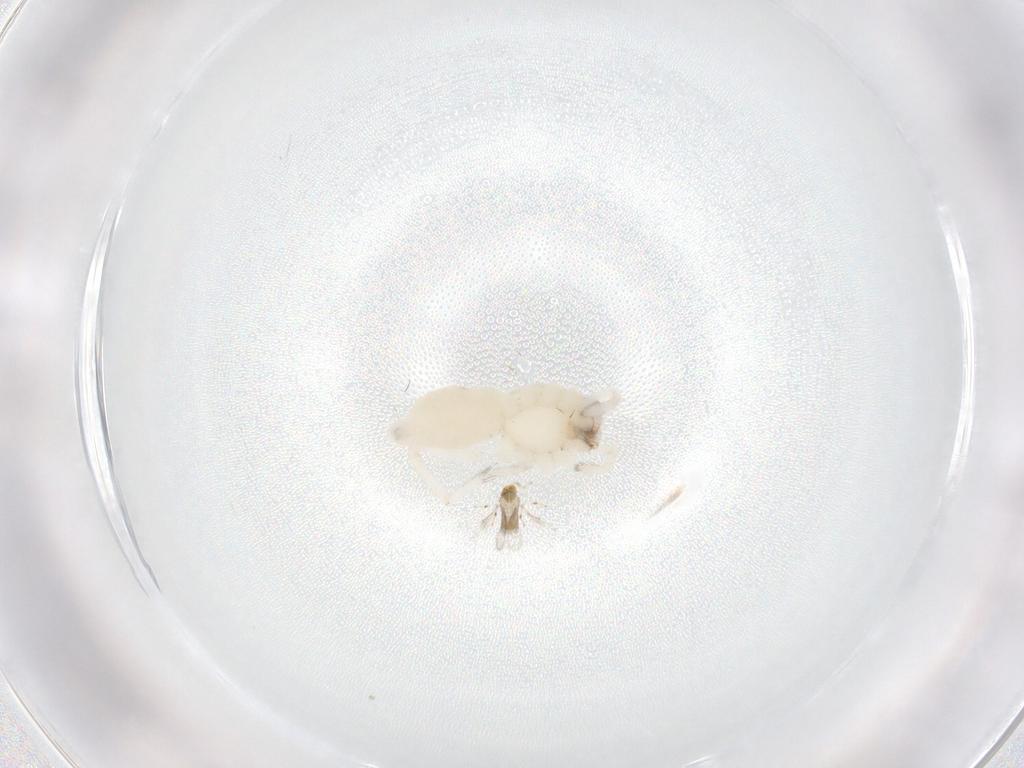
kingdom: Animalia
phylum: Arthropoda
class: Arachnida
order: Araneae
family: Anyphaenidae
